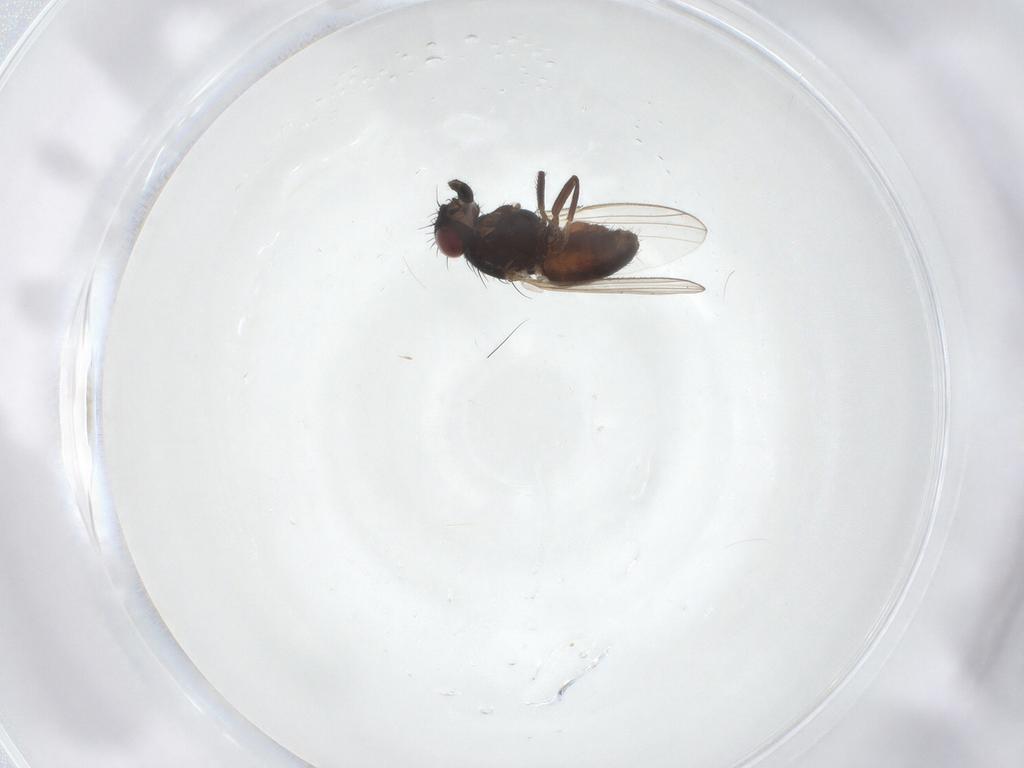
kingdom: Animalia
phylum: Arthropoda
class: Insecta
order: Diptera
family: Carnidae
